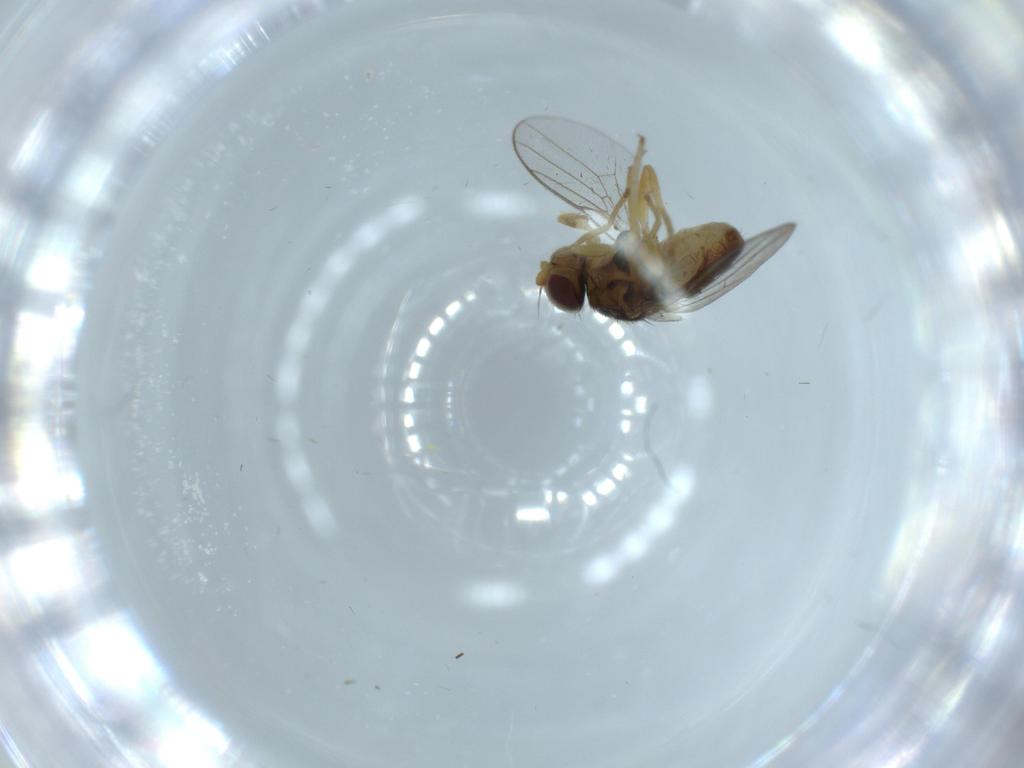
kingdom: Animalia
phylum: Arthropoda
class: Insecta
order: Diptera
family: Chloropidae
